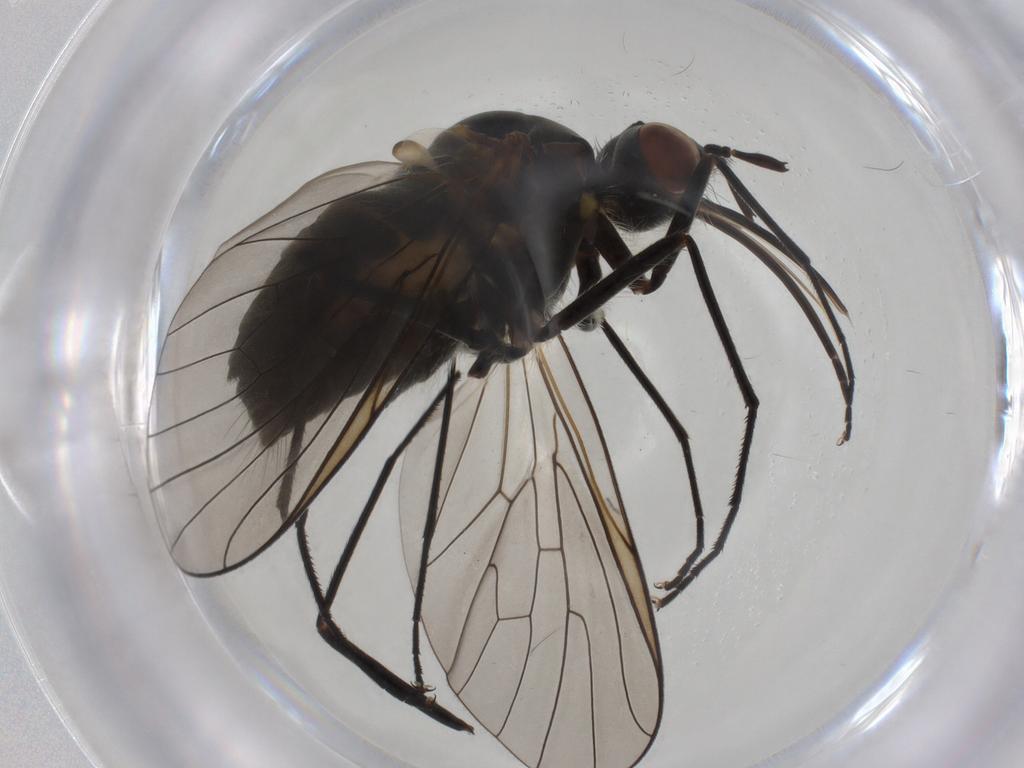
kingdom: Animalia
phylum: Arthropoda
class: Insecta
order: Diptera
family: Bombyliidae
